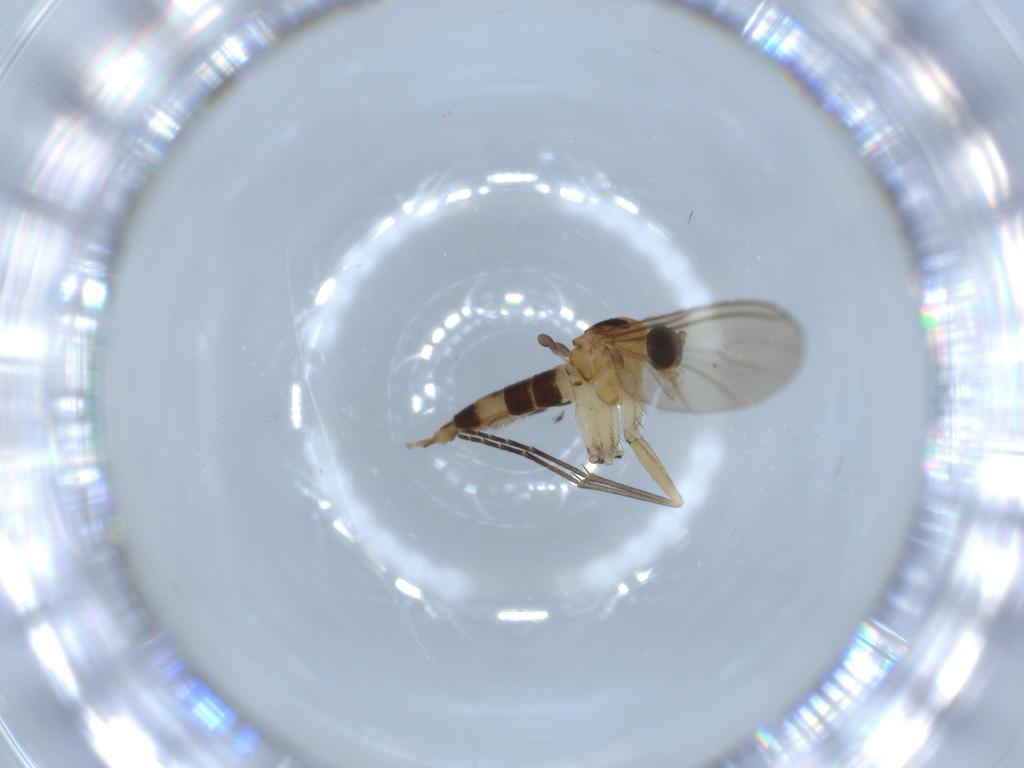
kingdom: Animalia
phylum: Arthropoda
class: Insecta
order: Diptera
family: Sciaridae
